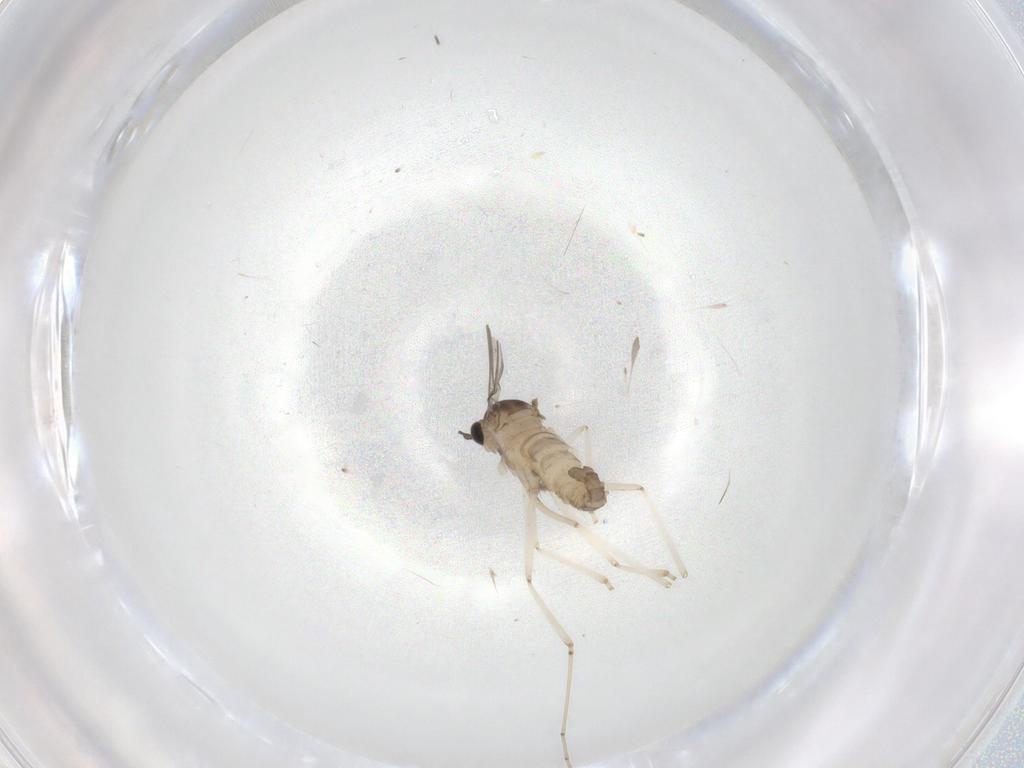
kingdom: Animalia
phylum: Arthropoda
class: Insecta
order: Diptera
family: Cecidomyiidae
